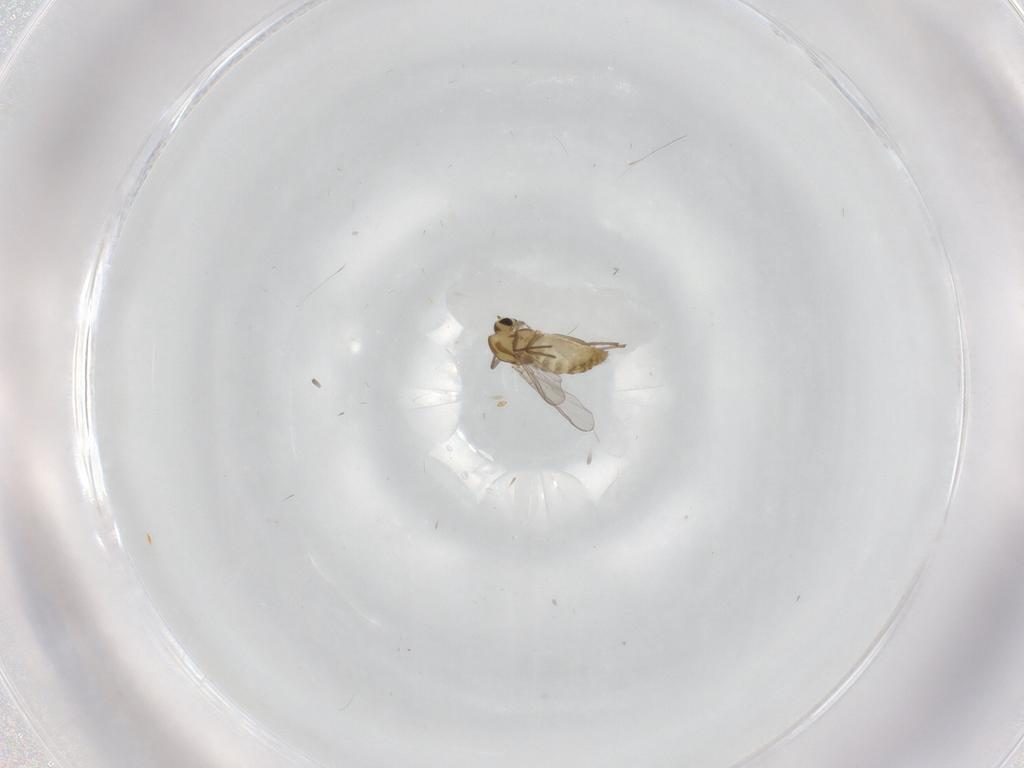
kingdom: Animalia
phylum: Arthropoda
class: Insecta
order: Diptera
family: Chironomidae
